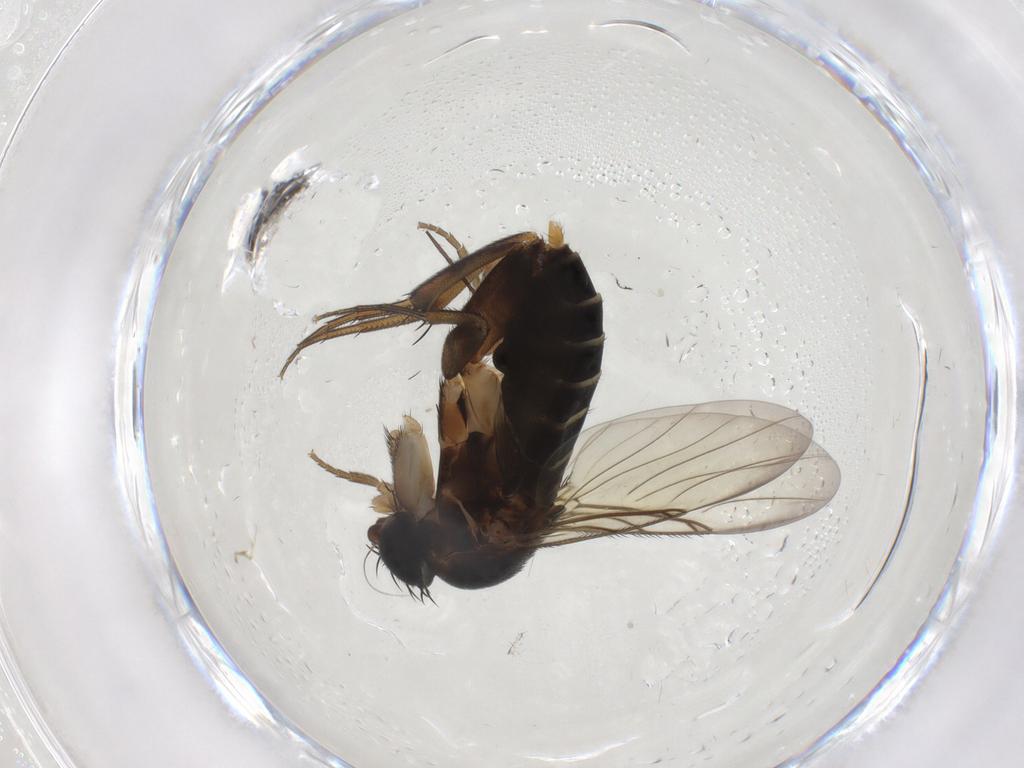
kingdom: Animalia
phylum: Arthropoda
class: Insecta
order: Diptera
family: Phoridae
